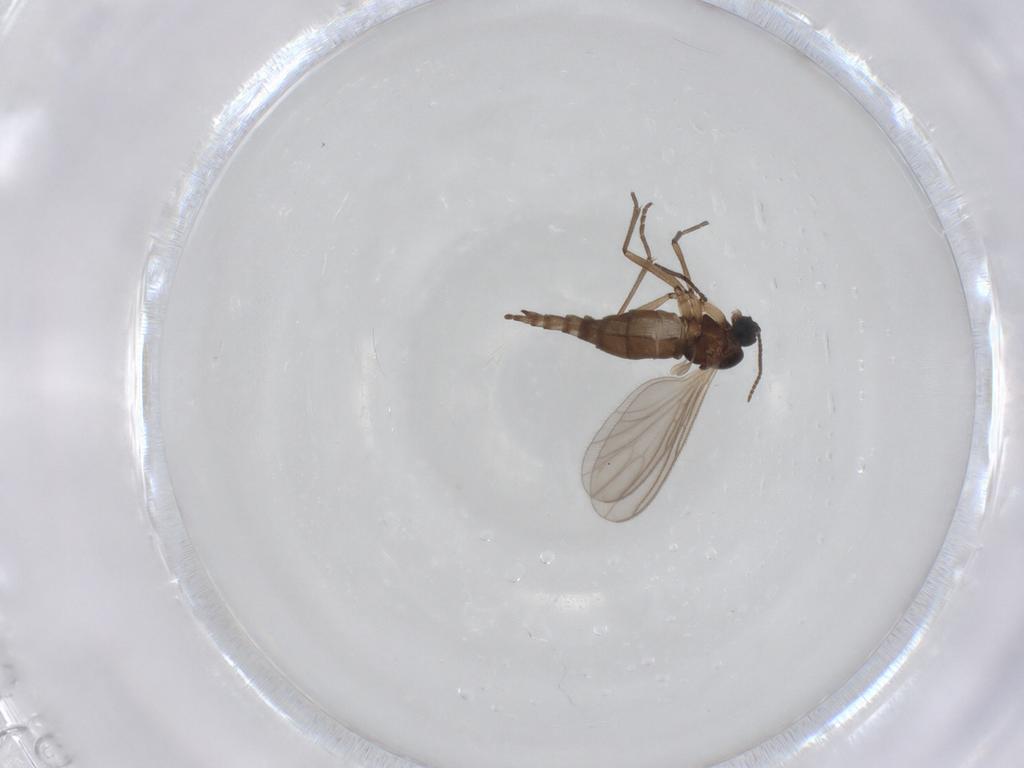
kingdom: Animalia
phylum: Arthropoda
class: Insecta
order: Diptera
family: Sciaridae
